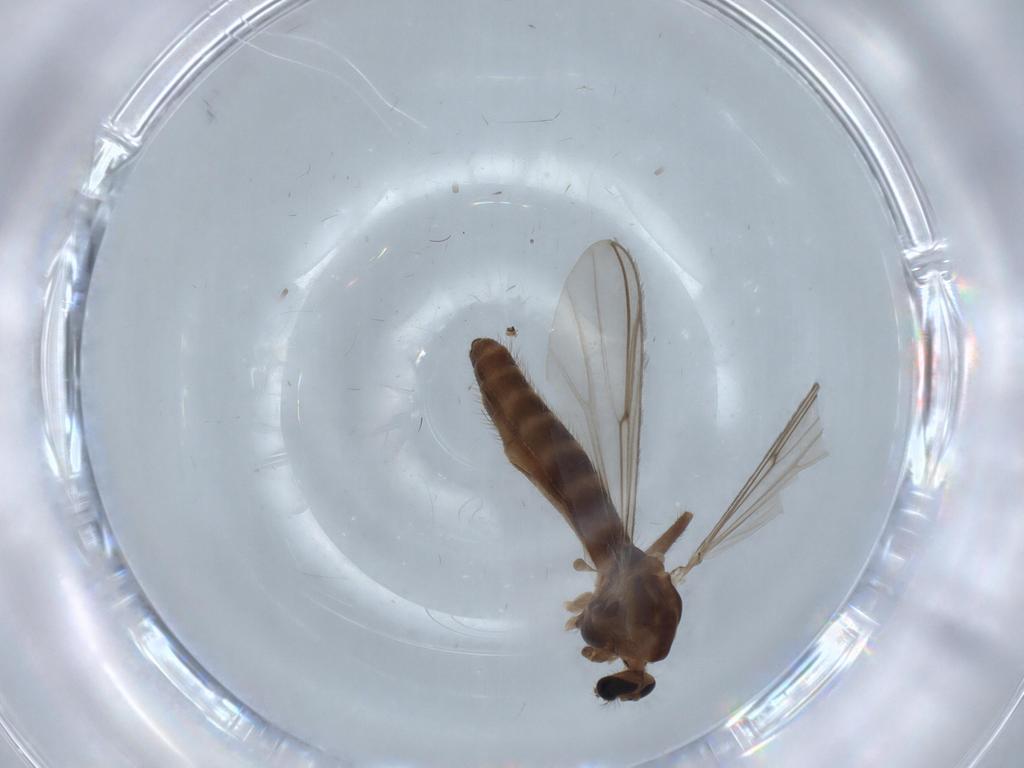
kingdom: Animalia
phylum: Arthropoda
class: Insecta
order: Diptera
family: Chironomidae
